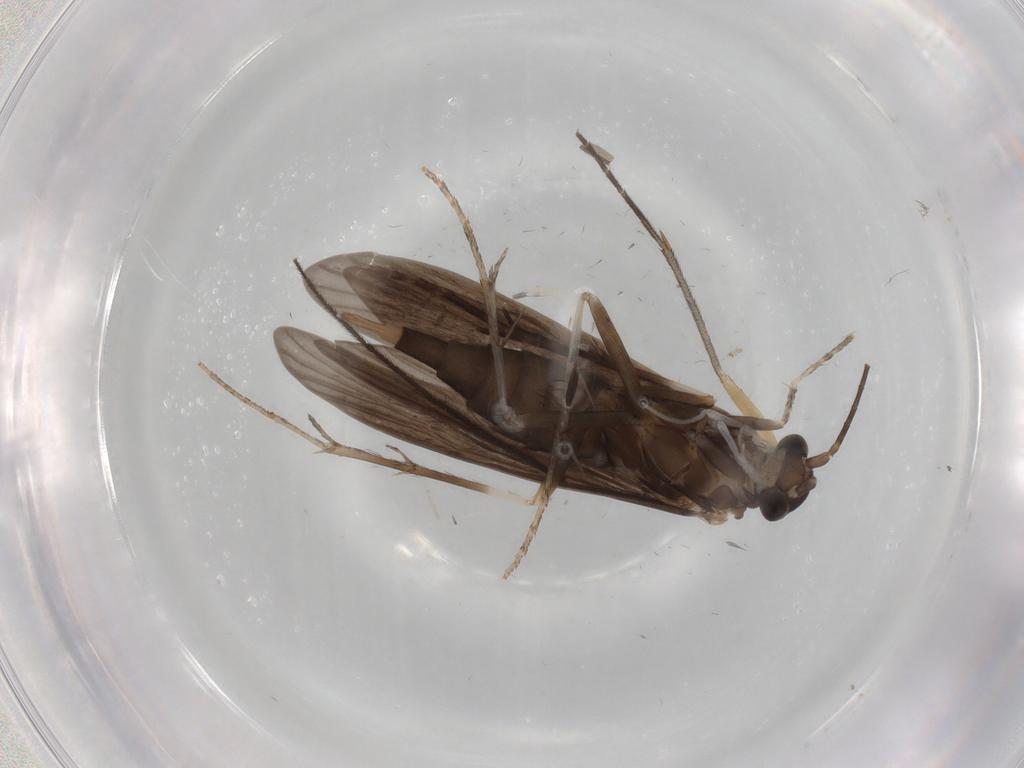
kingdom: Animalia
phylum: Arthropoda
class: Insecta
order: Trichoptera
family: Xiphocentronidae
